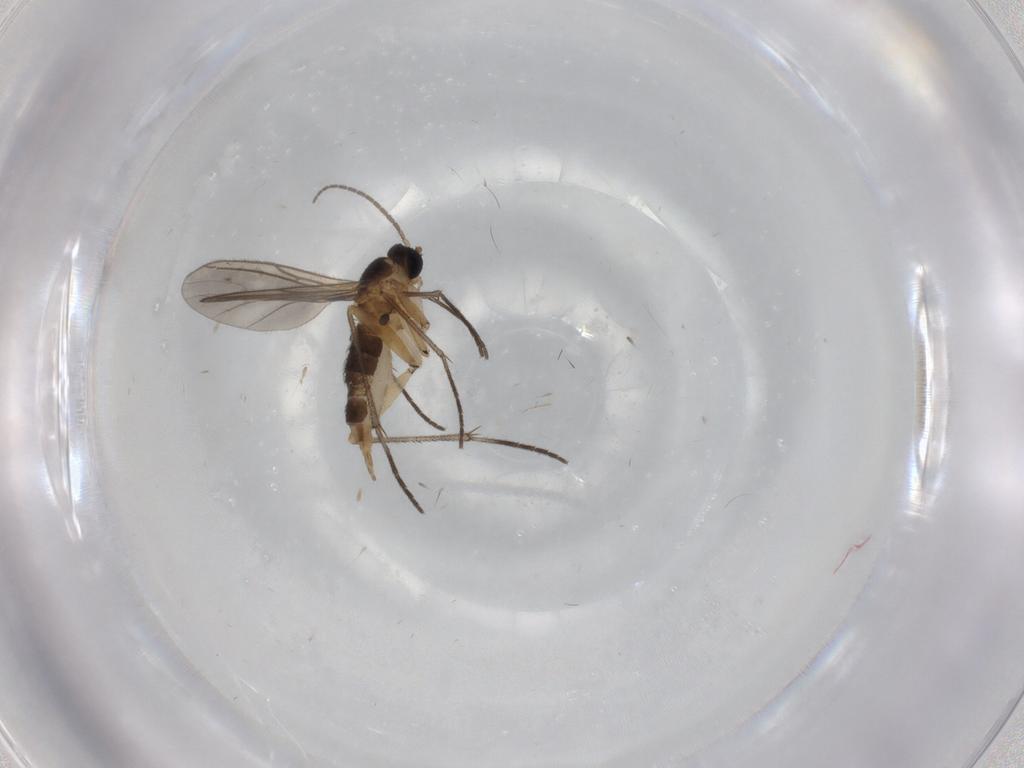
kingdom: Animalia
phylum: Arthropoda
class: Insecta
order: Diptera
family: Sciaridae
